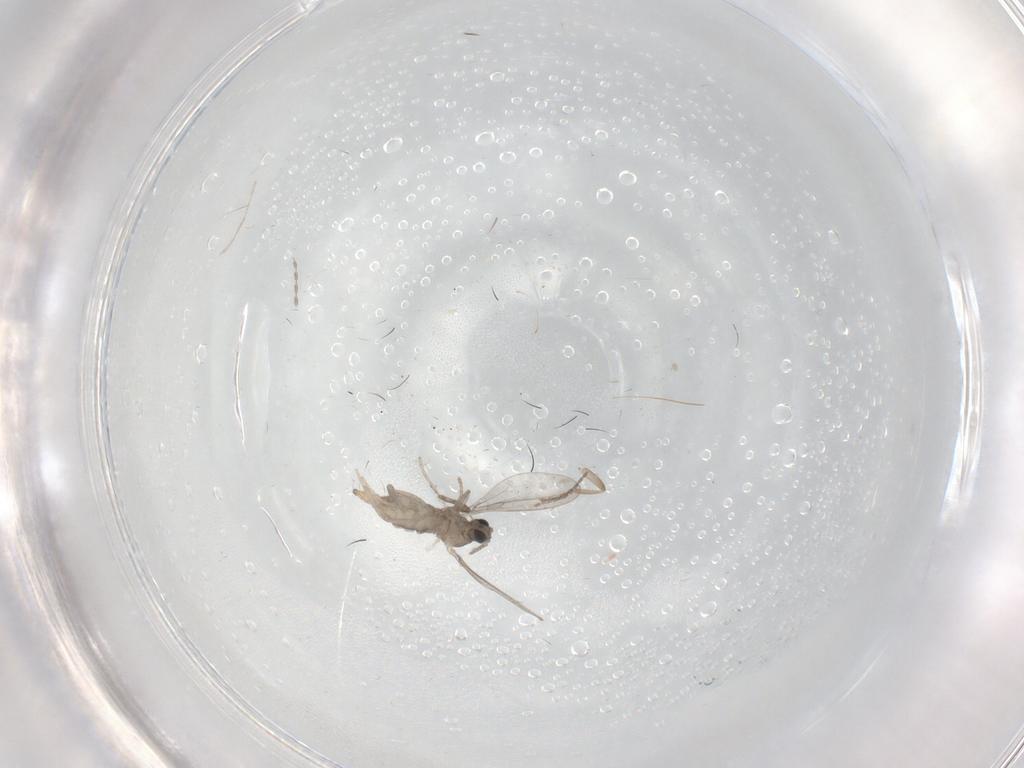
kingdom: Animalia
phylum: Arthropoda
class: Insecta
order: Diptera
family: Cecidomyiidae
